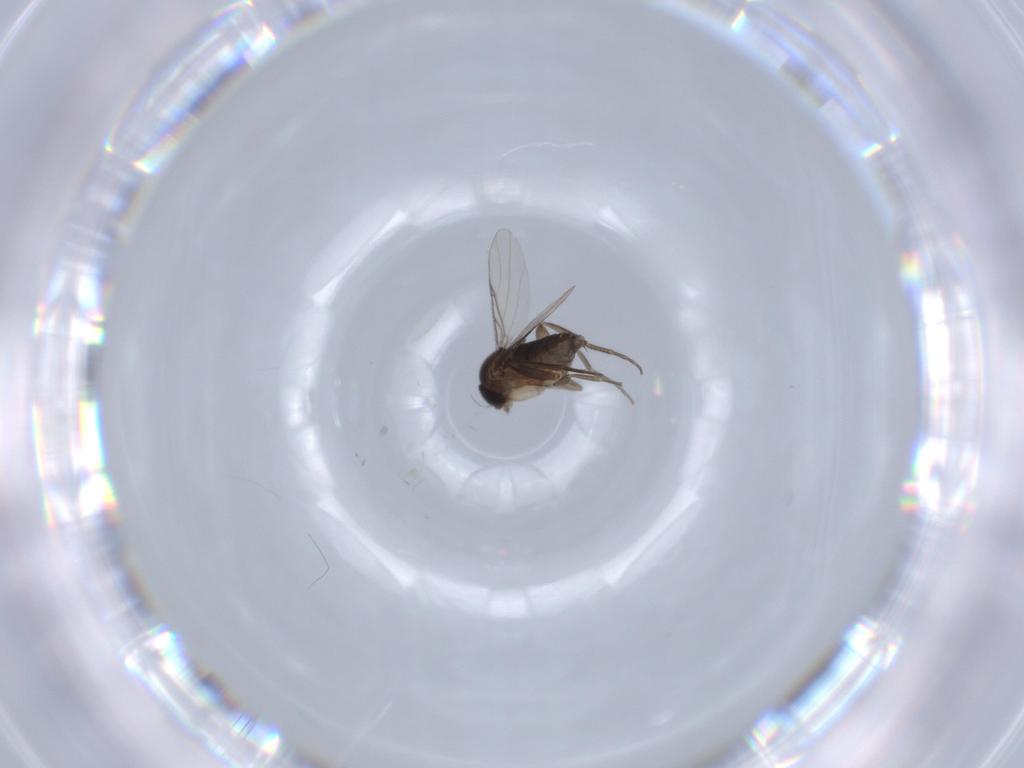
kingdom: Animalia
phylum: Arthropoda
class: Insecta
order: Diptera
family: Phoridae
